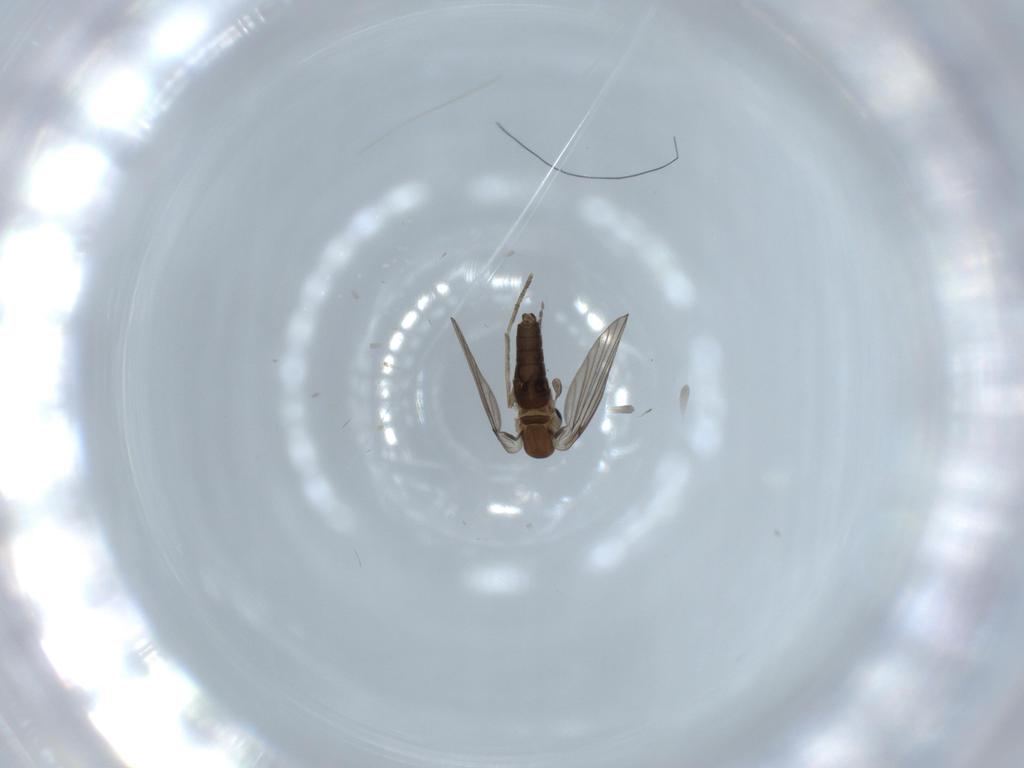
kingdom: Animalia
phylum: Arthropoda
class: Insecta
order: Diptera
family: Psychodidae
